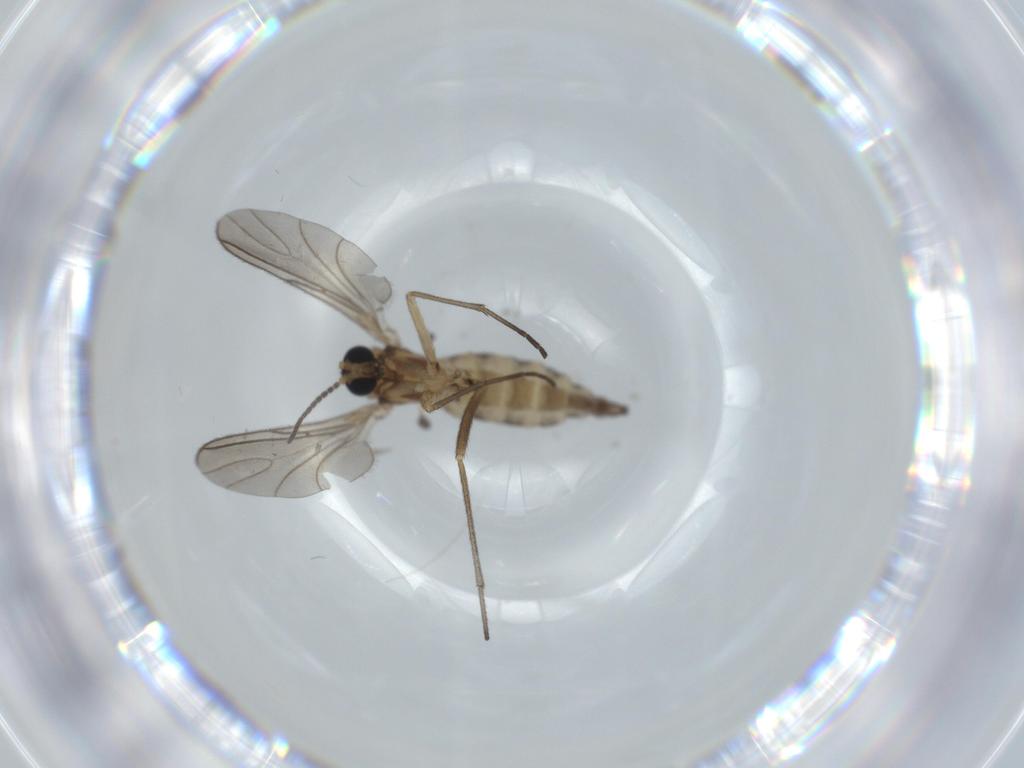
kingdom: Animalia
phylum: Arthropoda
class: Insecta
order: Diptera
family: Sciaridae
